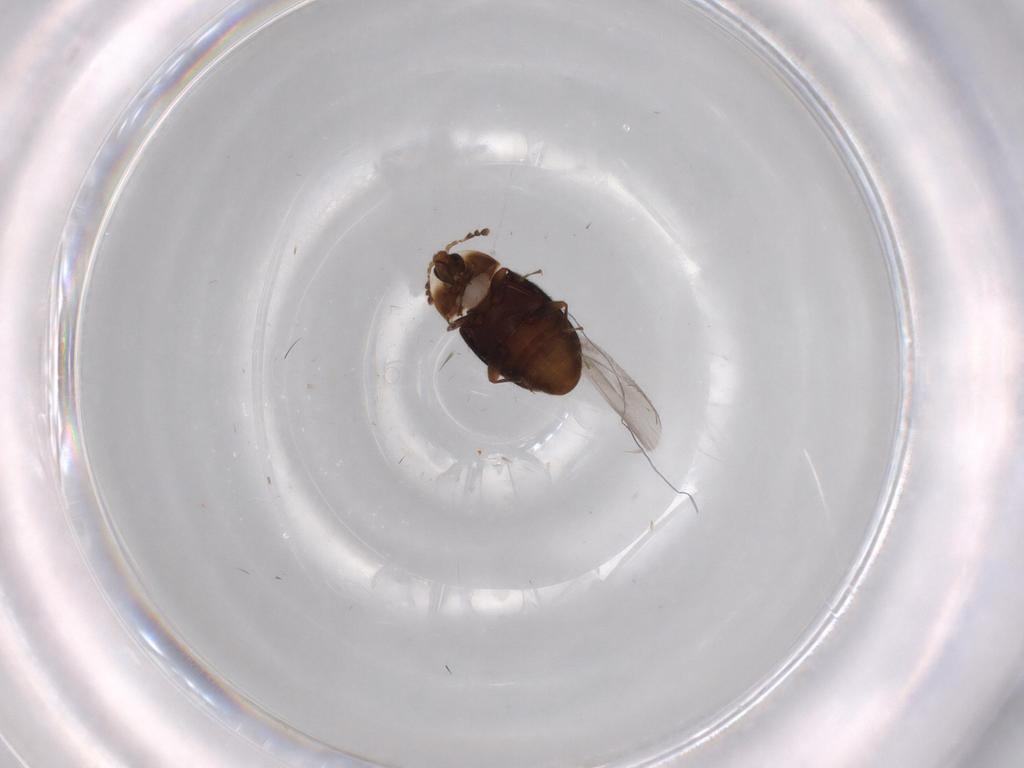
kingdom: Animalia
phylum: Arthropoda
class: Insecta
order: Coleoptera
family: Corylophidae
